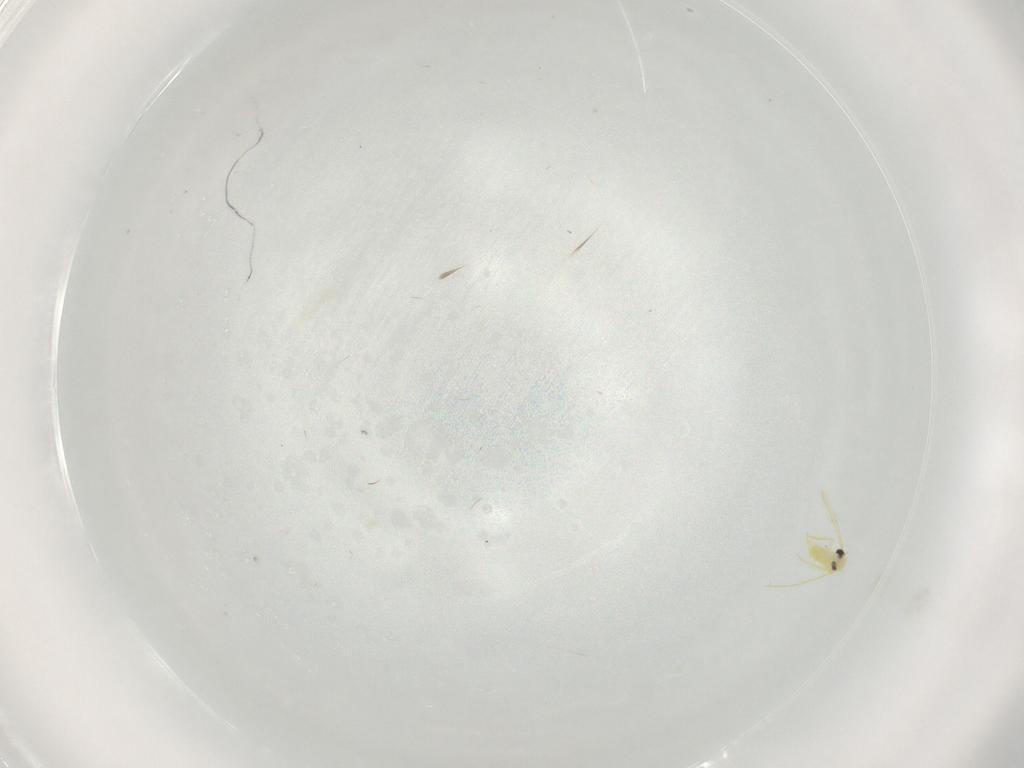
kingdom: Animalia
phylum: Arthropoda
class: Insecta
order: Hemiptera
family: Aleyrodidae
